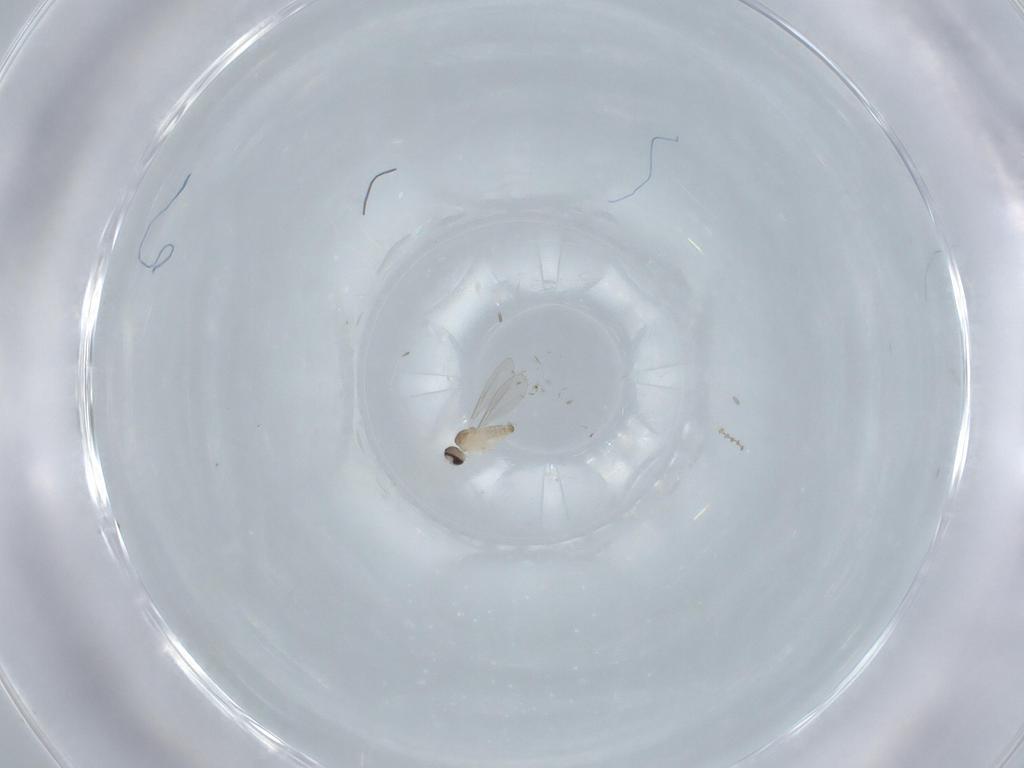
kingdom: Animalia
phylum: Arthropoda
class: Insecta
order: Diptera
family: Cecidomyiidae
